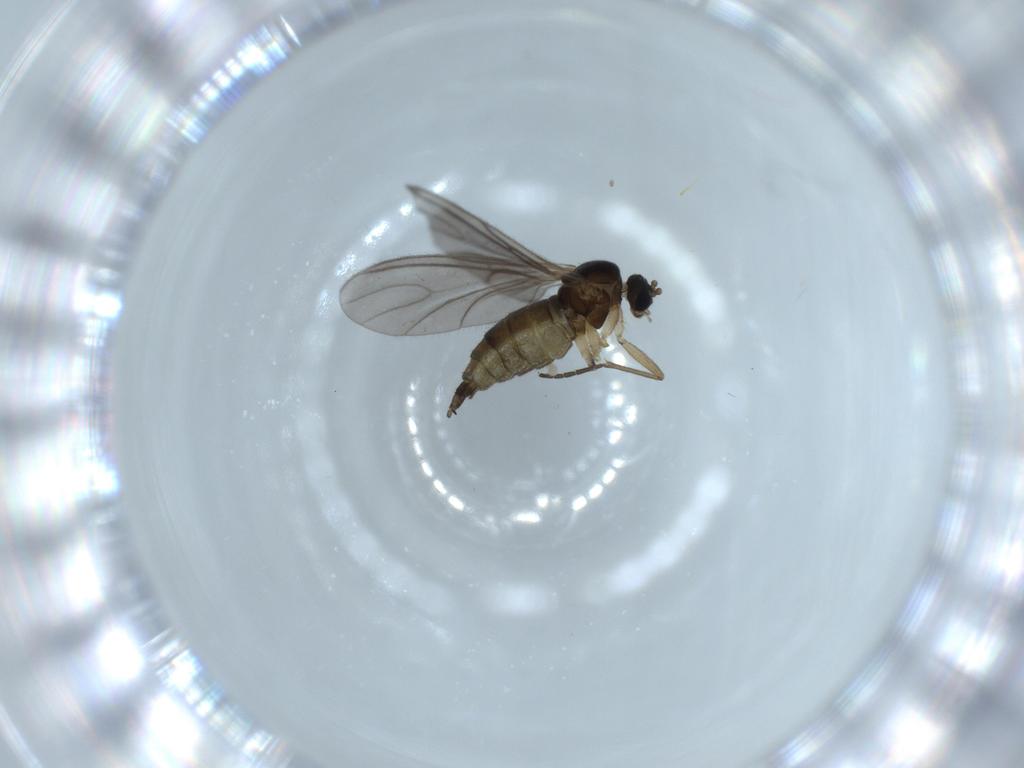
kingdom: Animalia
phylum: Arthropoda
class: Insecta
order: Diptera
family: Sciaridae
